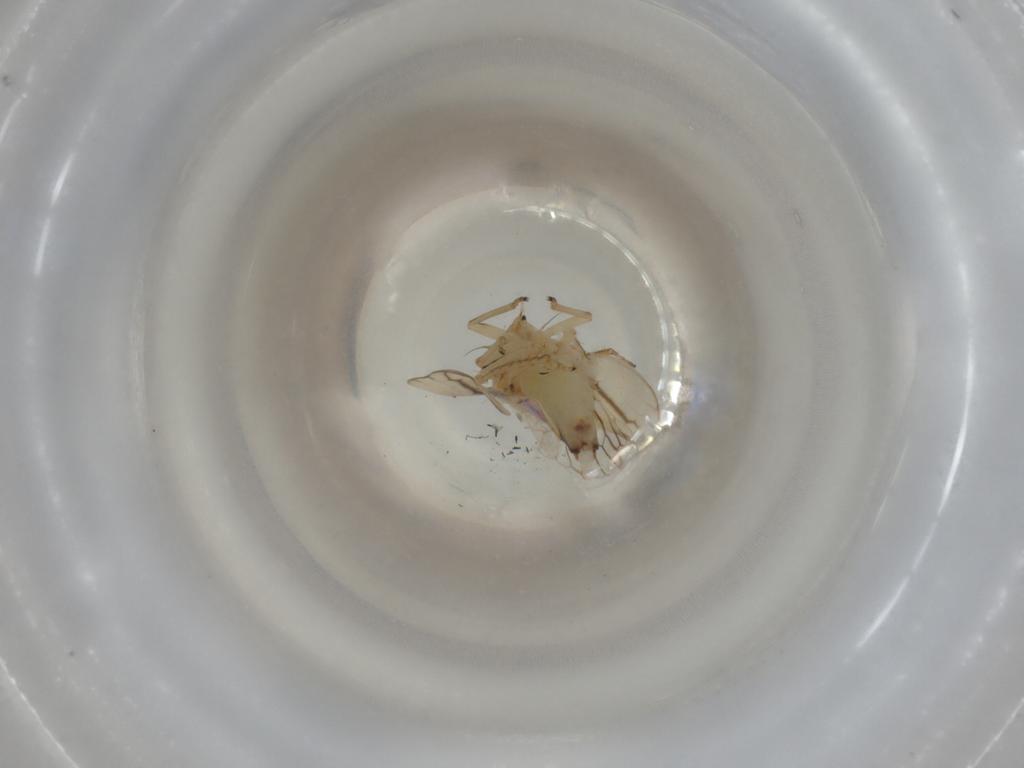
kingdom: Animalia
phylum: Arthropoda
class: Insecta
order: Hemiptera
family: Cicadellidae
